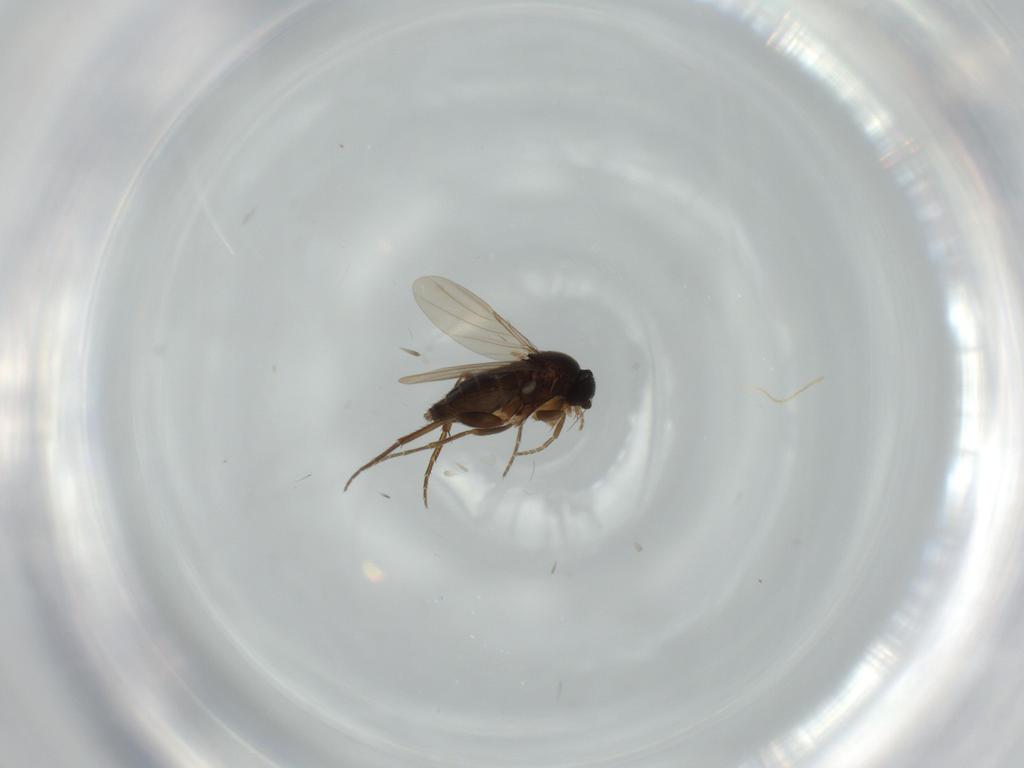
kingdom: Animalia
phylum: Arthropoda
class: Insecta
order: Diptera
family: Phoridae
